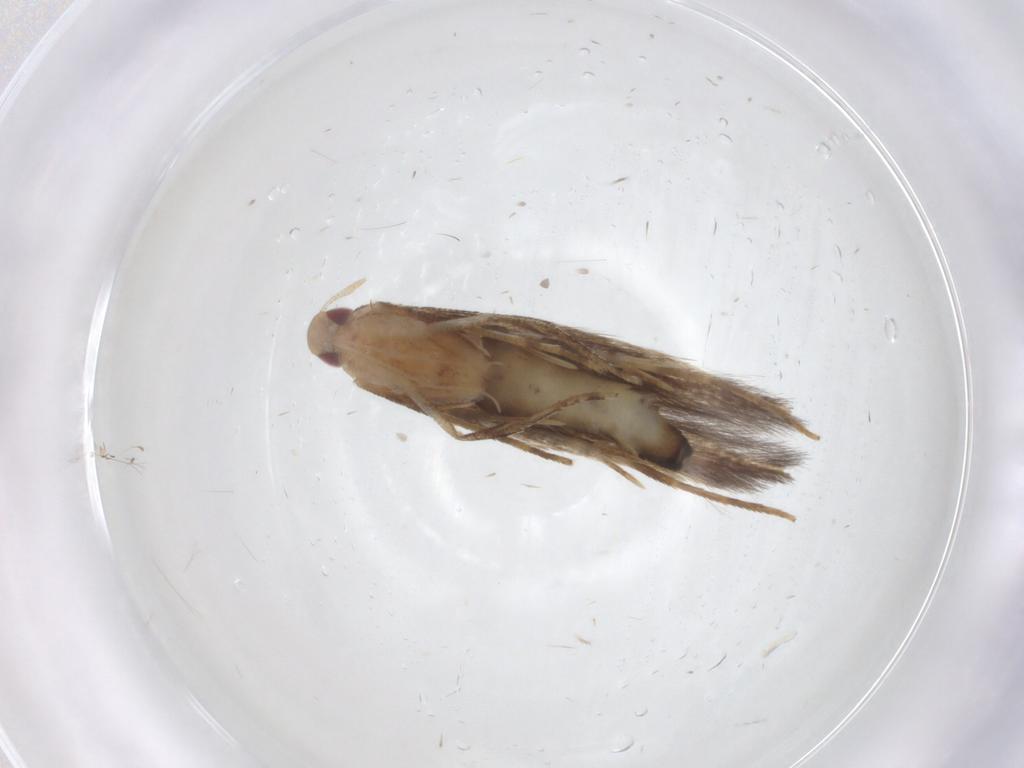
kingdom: Animalia
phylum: Arthropoda
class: Insecta
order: Lepidoptera
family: Cosmopterigidae
